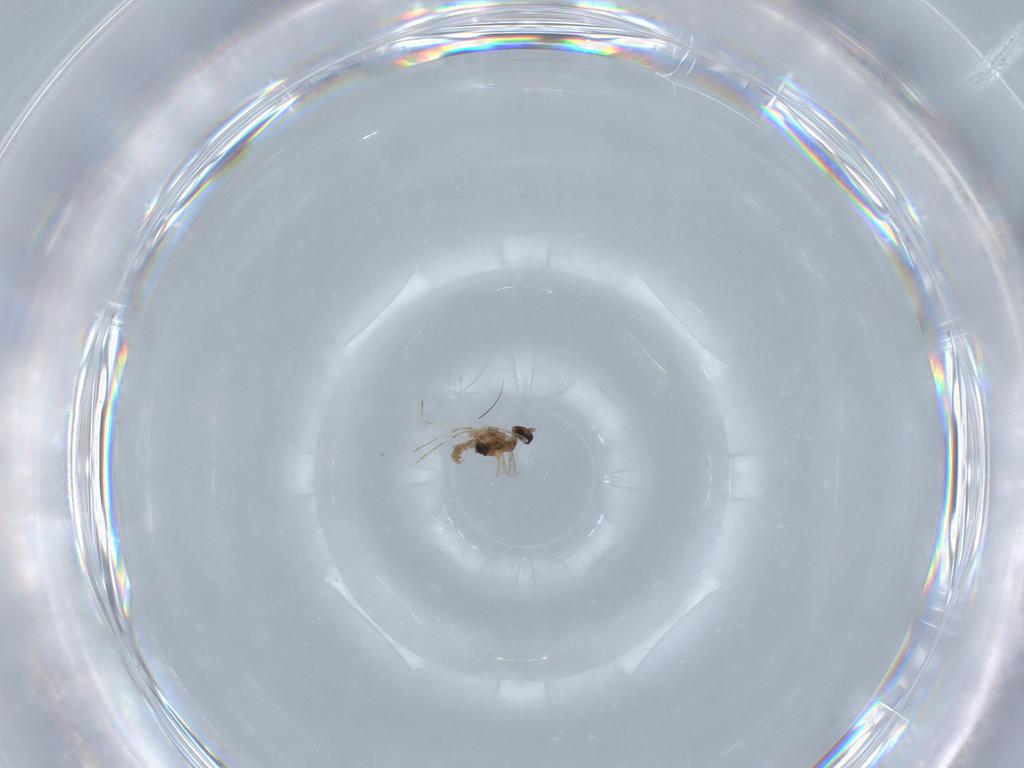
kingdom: Animalia
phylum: Arthropoda
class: Insecta
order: Diptera
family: Cecidomyiidae
